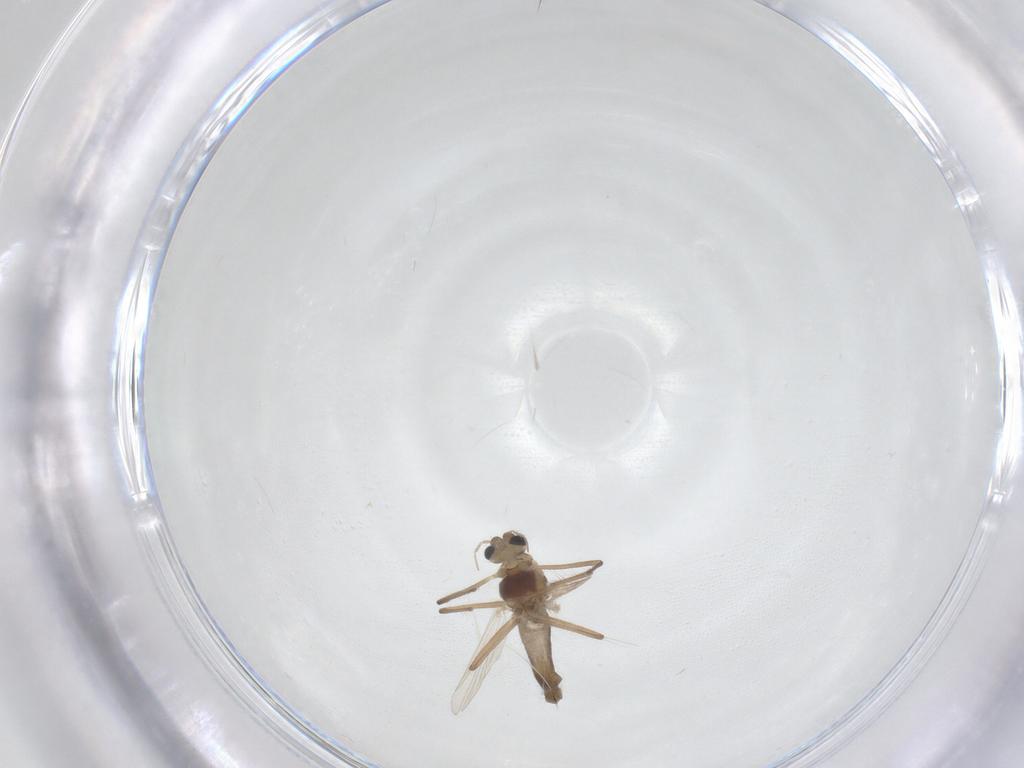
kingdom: Animalia
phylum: Arthropoda
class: Insecta
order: Diptera
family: Chironomidae
